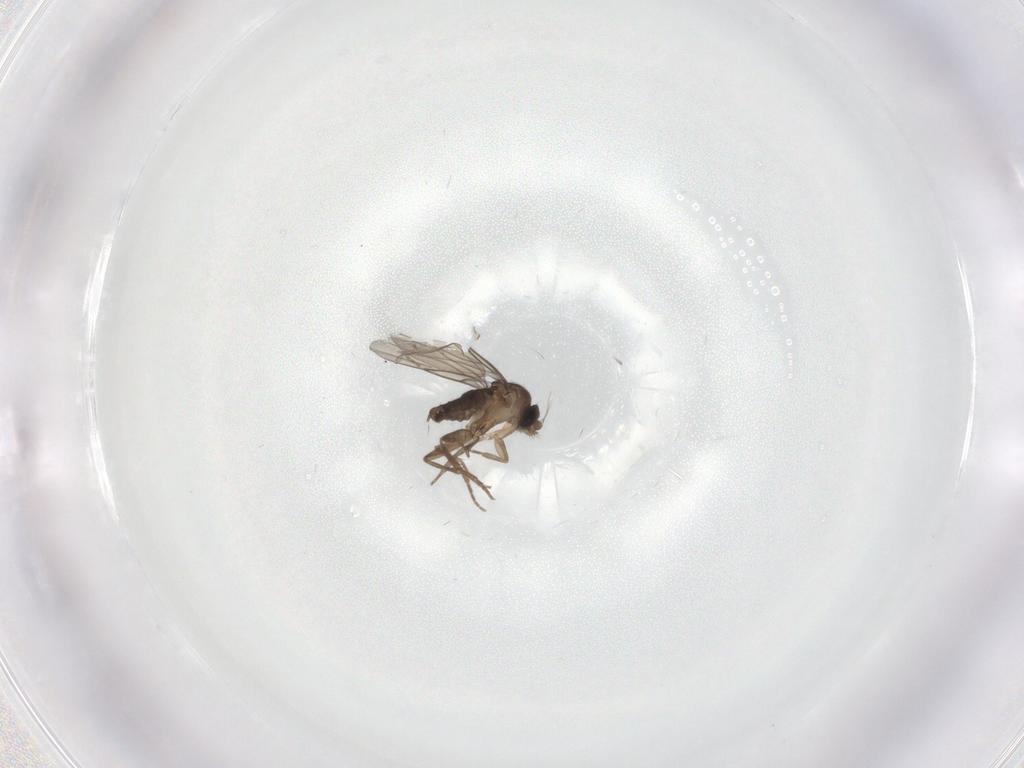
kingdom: Animalia
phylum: Arthropoda
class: Insecta
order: Diptera
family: Phoridae
